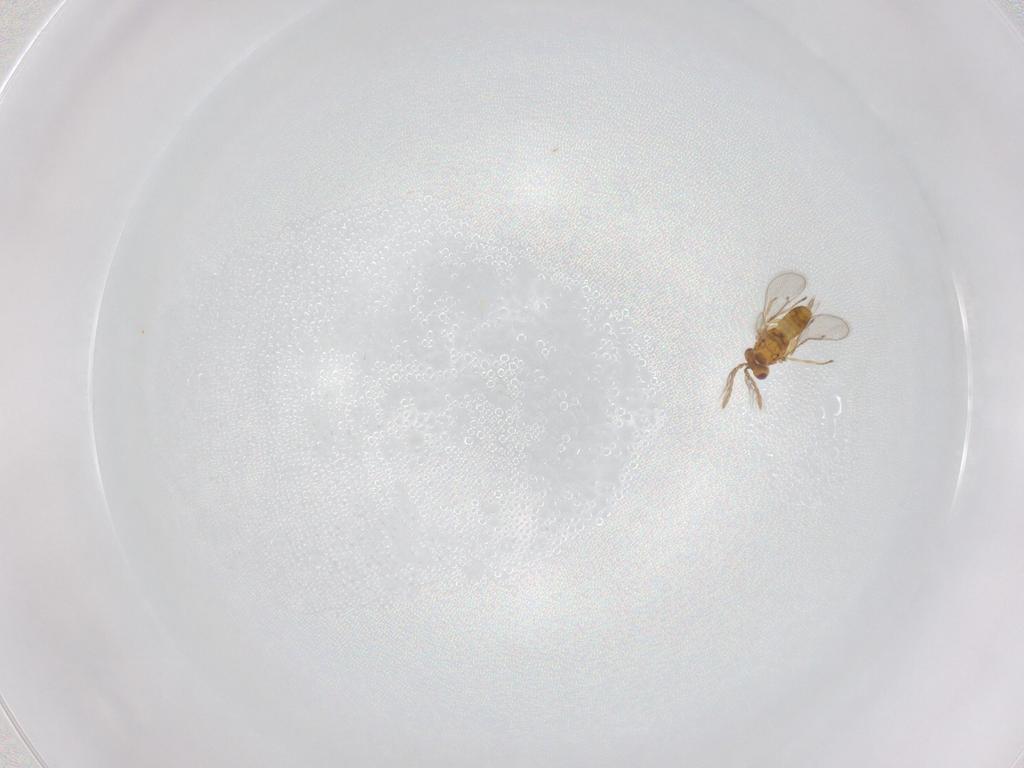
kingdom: Animalia
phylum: Arthropoda
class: Insecta
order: Hymenoptera
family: Eulophidae
